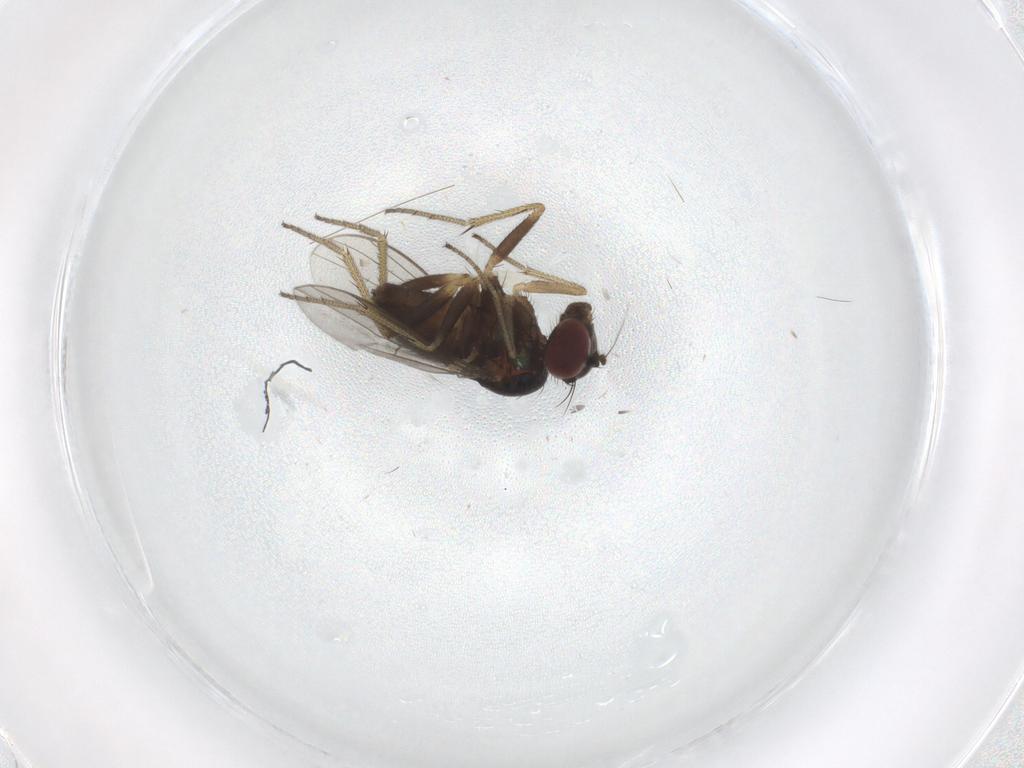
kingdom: Animalia
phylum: Arthropoda
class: Insecta
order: Diptera
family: Dolichopodidae
